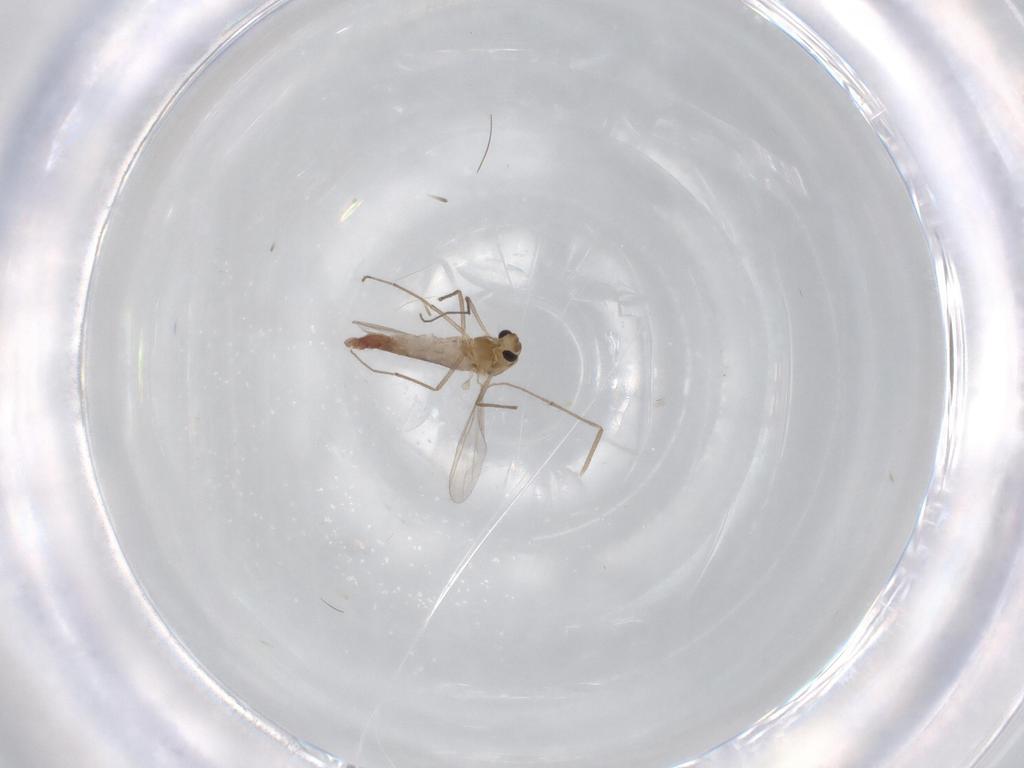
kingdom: Animalia
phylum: Arthropoda
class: Insecta
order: Diptera
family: Chironomidae
